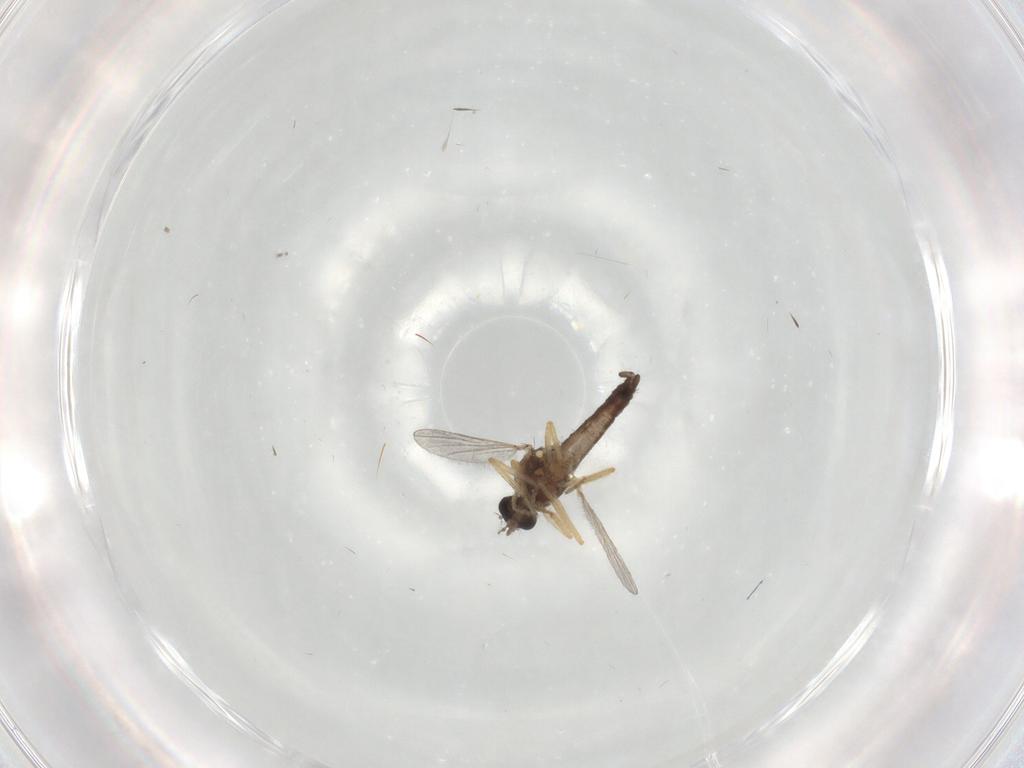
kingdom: Animalia
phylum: Arthropoda
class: Insecta
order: Diptera
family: Ceratopogonidae
